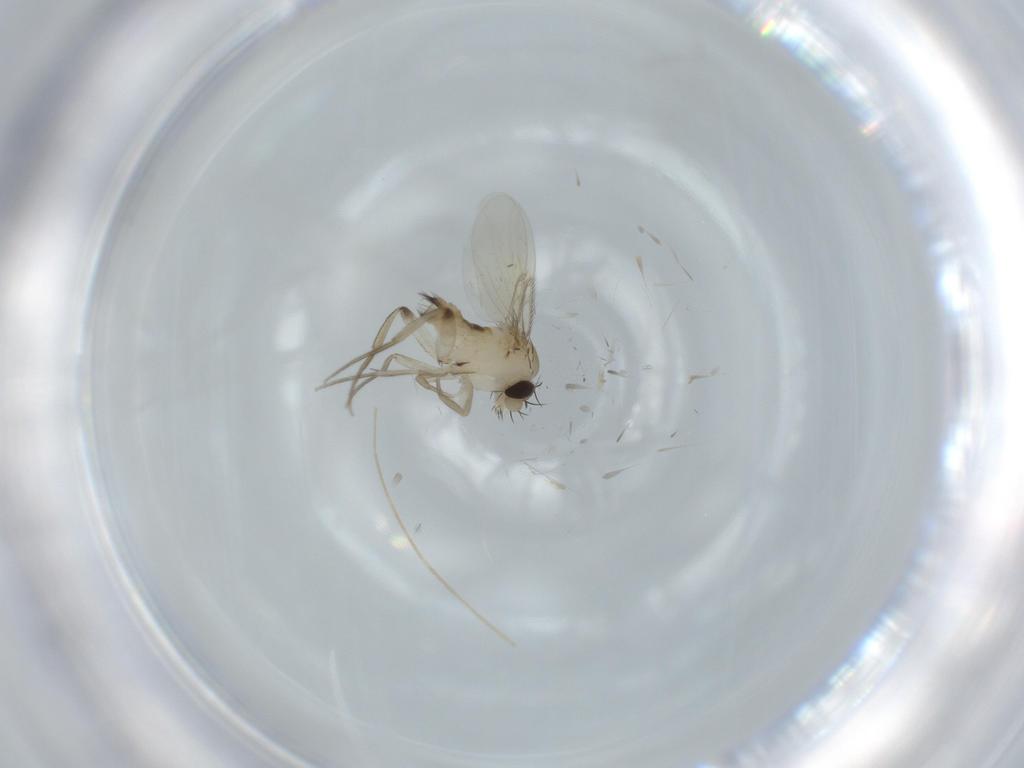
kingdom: Animalia
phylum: Arthropoda
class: Insecta
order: Diptera
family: Phoridae
